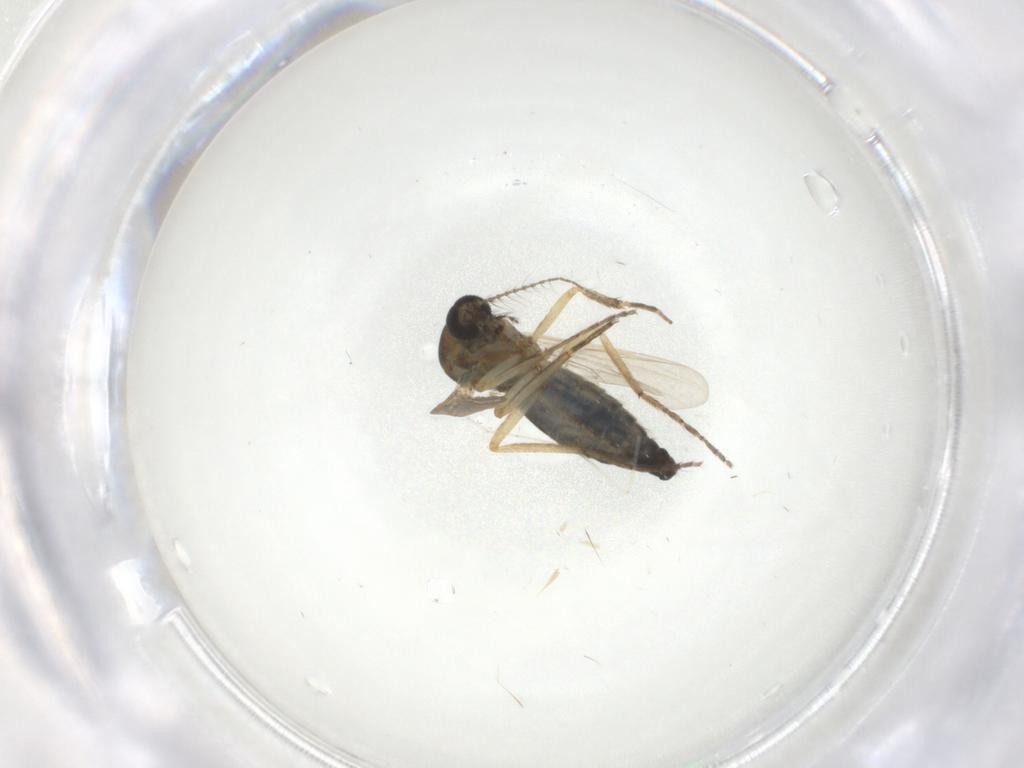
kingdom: Animalia
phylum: Arthropoda
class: Insecta
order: Diptera
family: Ceratopogonidae
